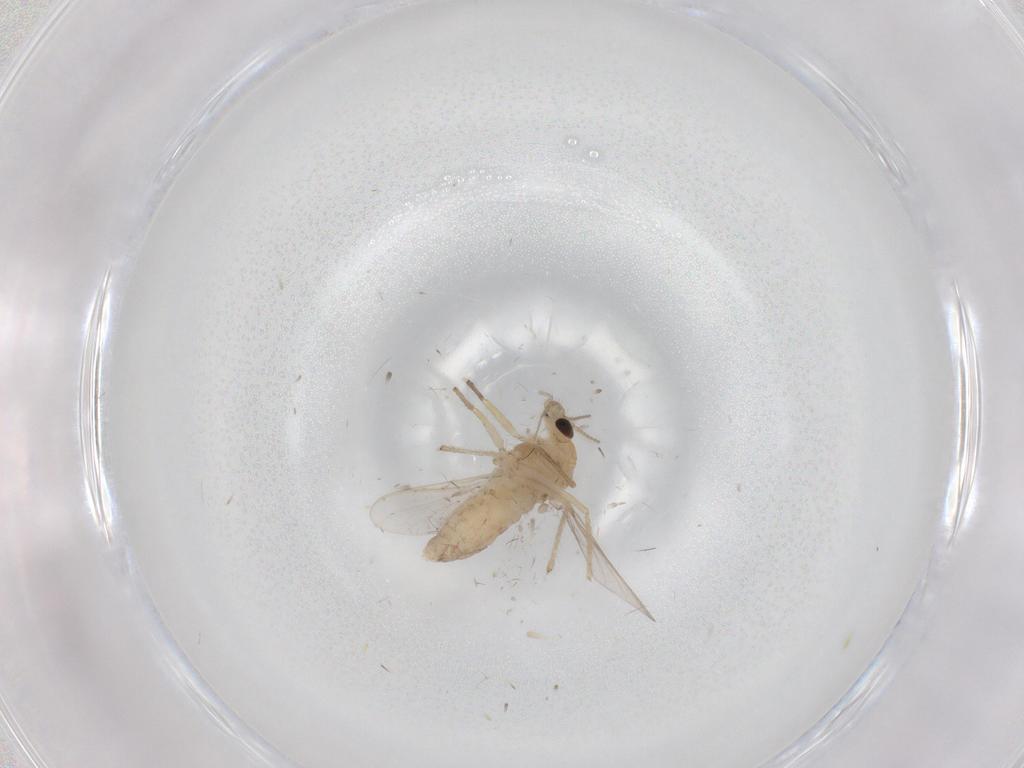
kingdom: Animalia
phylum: Arthropoda
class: Insecta
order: Diptera
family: Chironomidae
